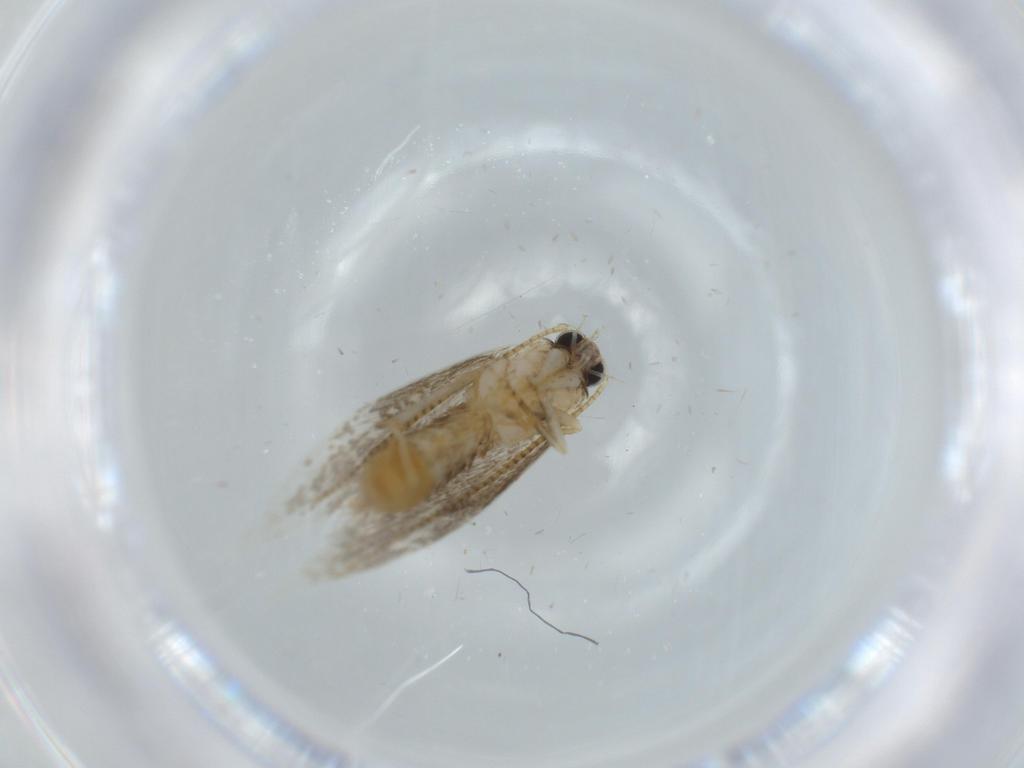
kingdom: Animalia
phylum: Arthropoda
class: Insecta
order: Lepidoptera
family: Tineidae
